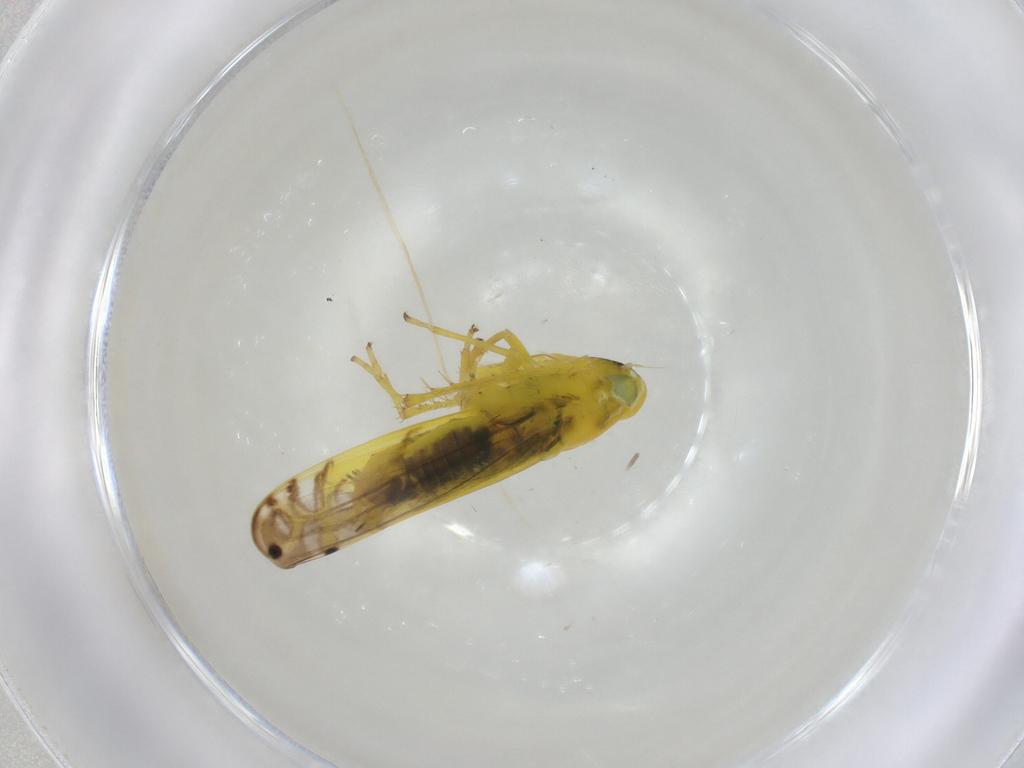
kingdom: Animalia
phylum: Arthropoda
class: Insecta
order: Hemiptera
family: Cicadellidae
